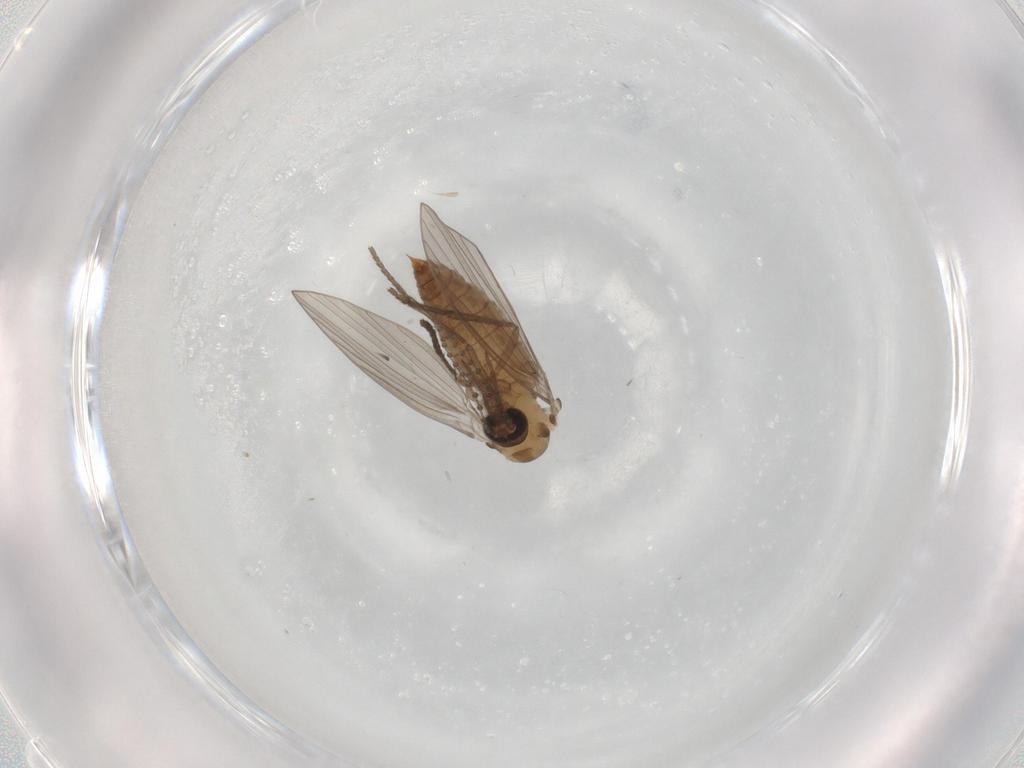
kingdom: Animalia
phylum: Arthropoda
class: Insecta
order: Diptera
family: Psychodidae
